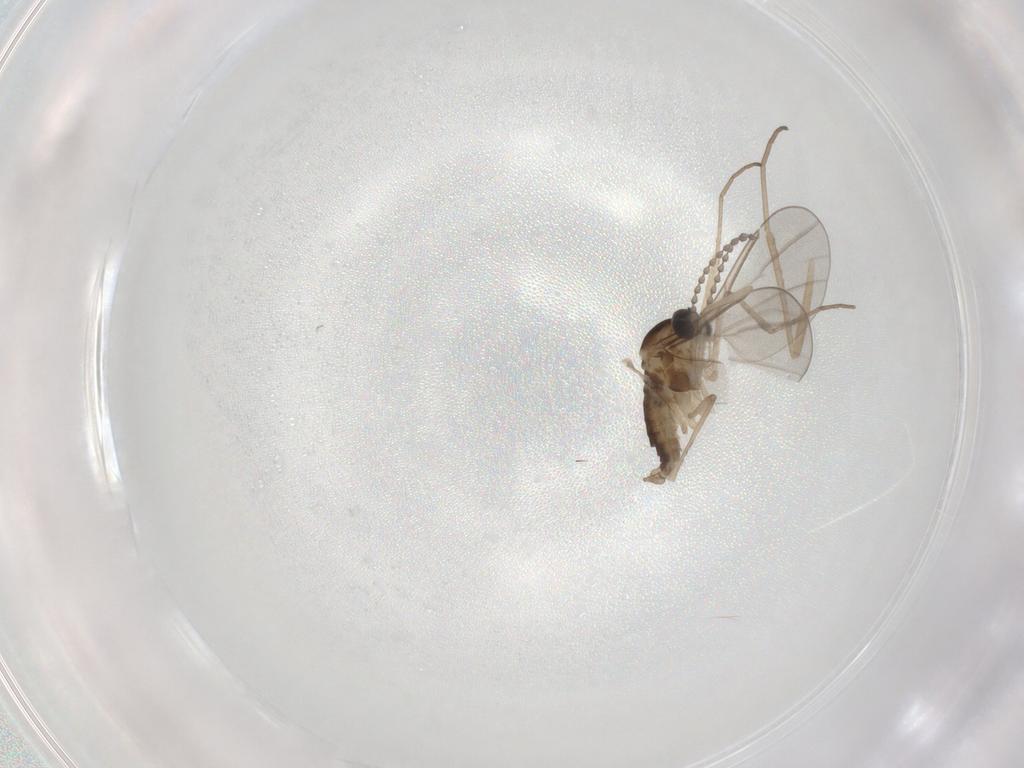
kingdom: Animalia
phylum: Arthropoda
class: Insecta
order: Diptera
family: Cecidomyiidae
